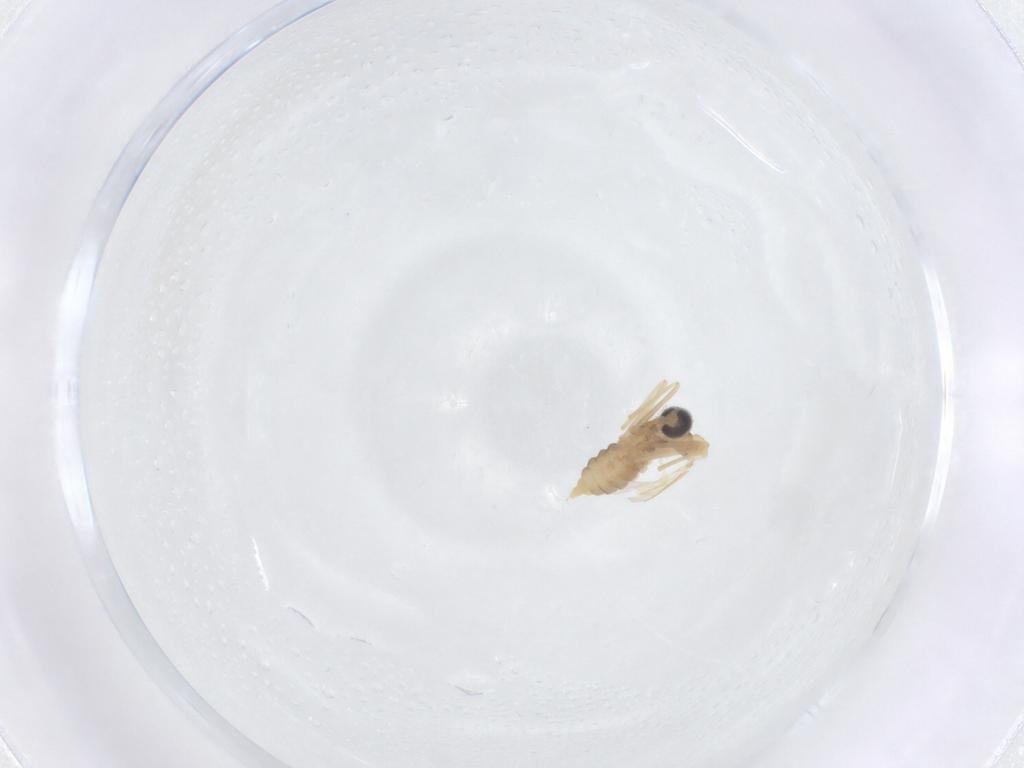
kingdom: Animalia
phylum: Arthropoda
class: Insecta
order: Diptera
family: Cecidomyiidae
